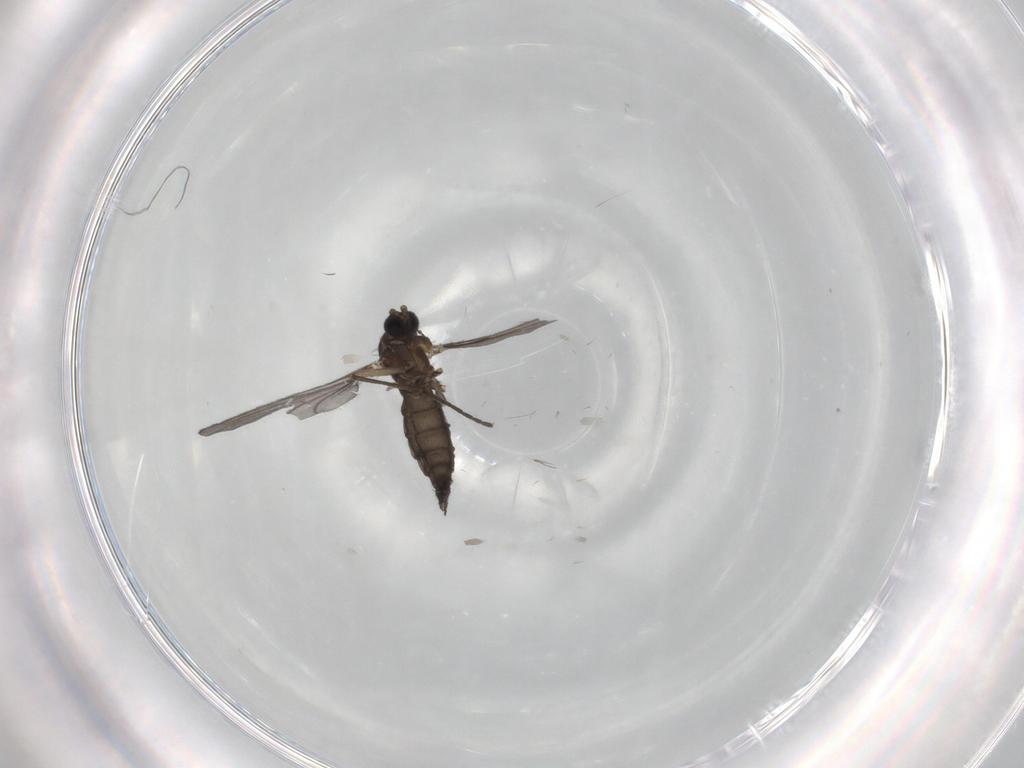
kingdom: Animalia
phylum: Arthropoda
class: Insecta
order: Diptera
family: Sciaridae
